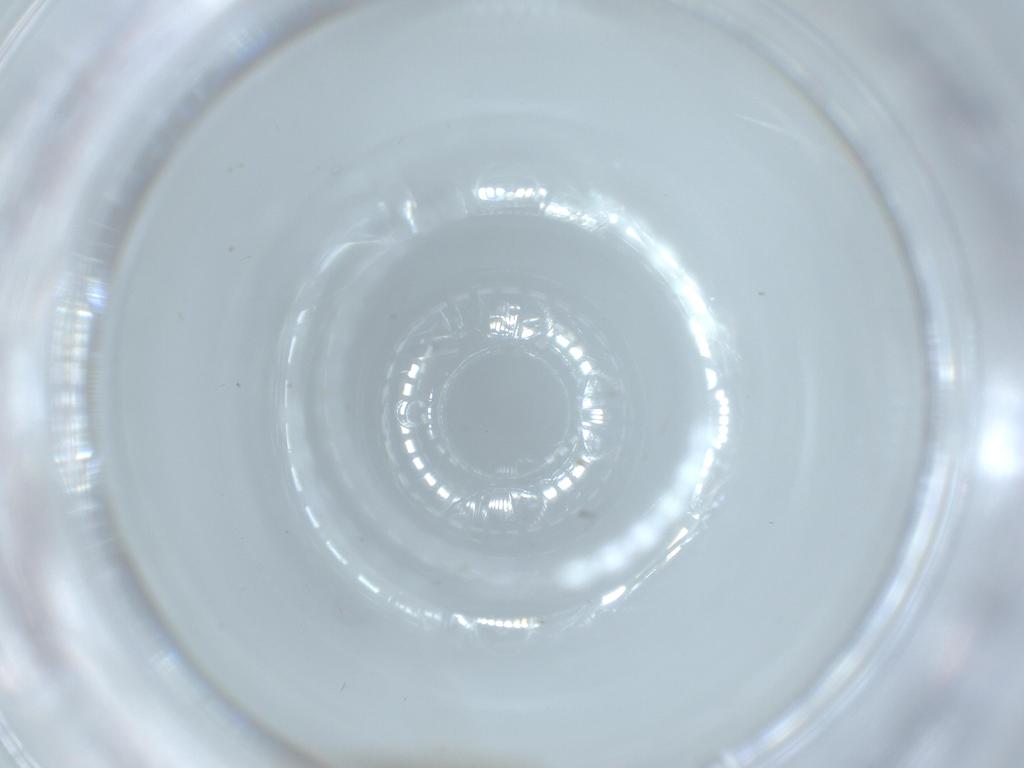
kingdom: Animalia
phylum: Arthropoda
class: Insecta
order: Lepidoptera
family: Bucculatricidae
